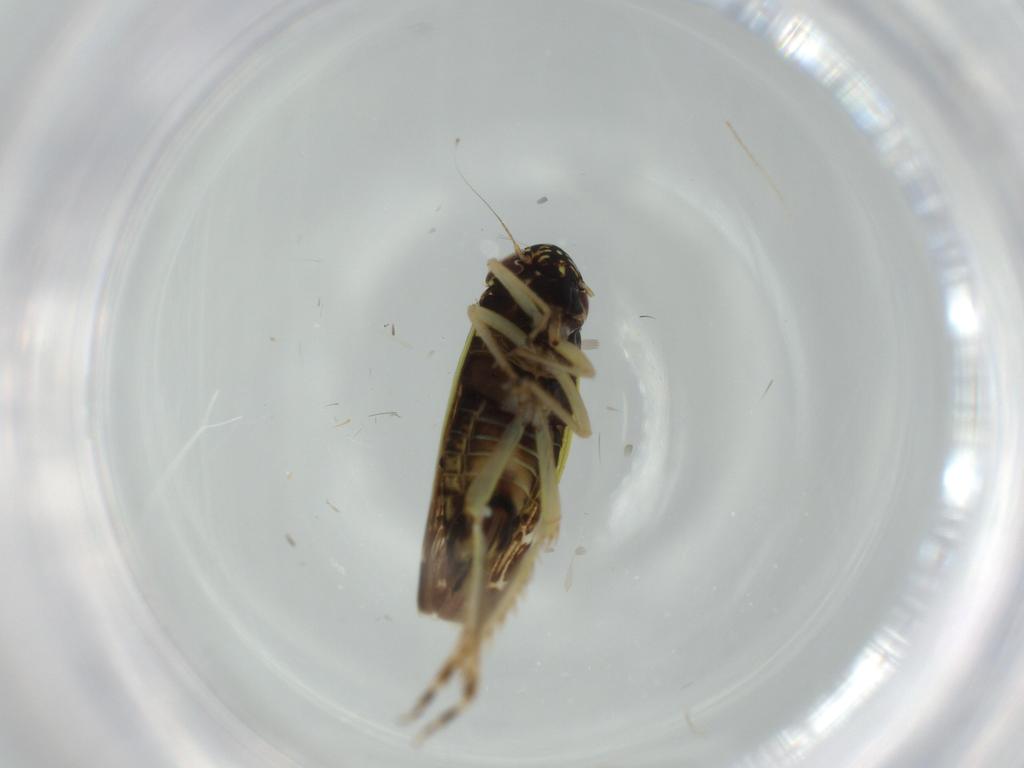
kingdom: Animalia
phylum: Arthropoda
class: Insecta
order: Hemiptera
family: Cicadellidae
